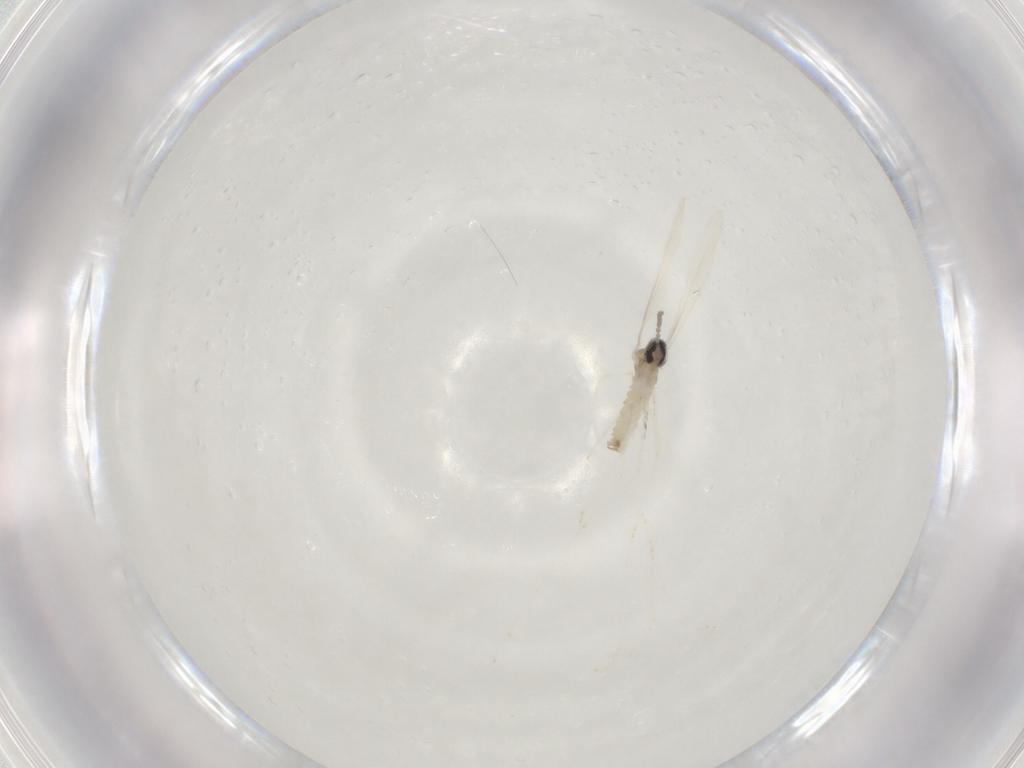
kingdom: Animalia
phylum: Arthropoda
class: Insecta
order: Diptera
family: Cecidomyiidae
